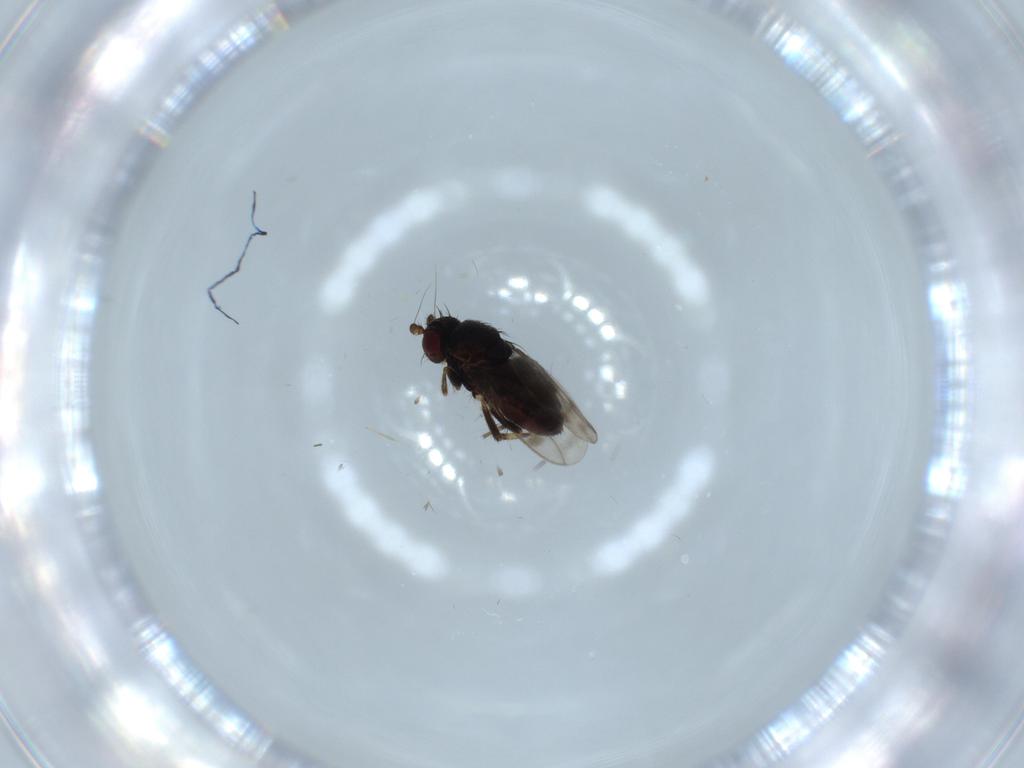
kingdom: Animalia
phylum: Arthropoda
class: Insecta
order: Diptera
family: Sphaeroceridae
